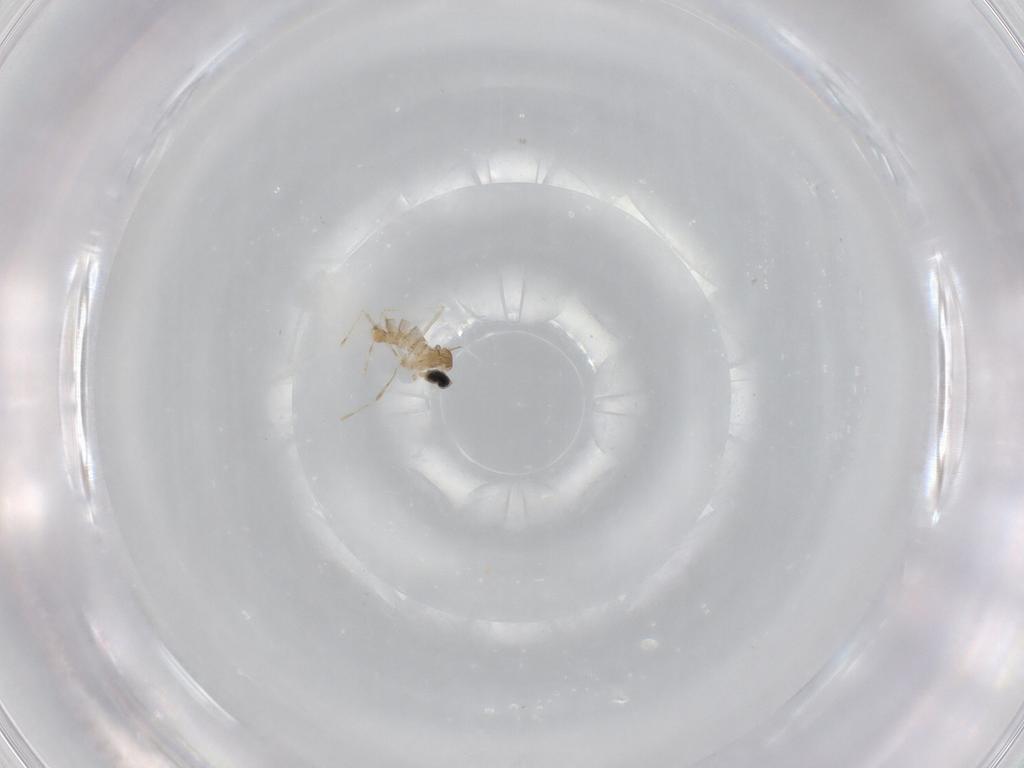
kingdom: Animalia
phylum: Arthropoda
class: Insecta
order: Diptera
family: Cecidomyiidae
